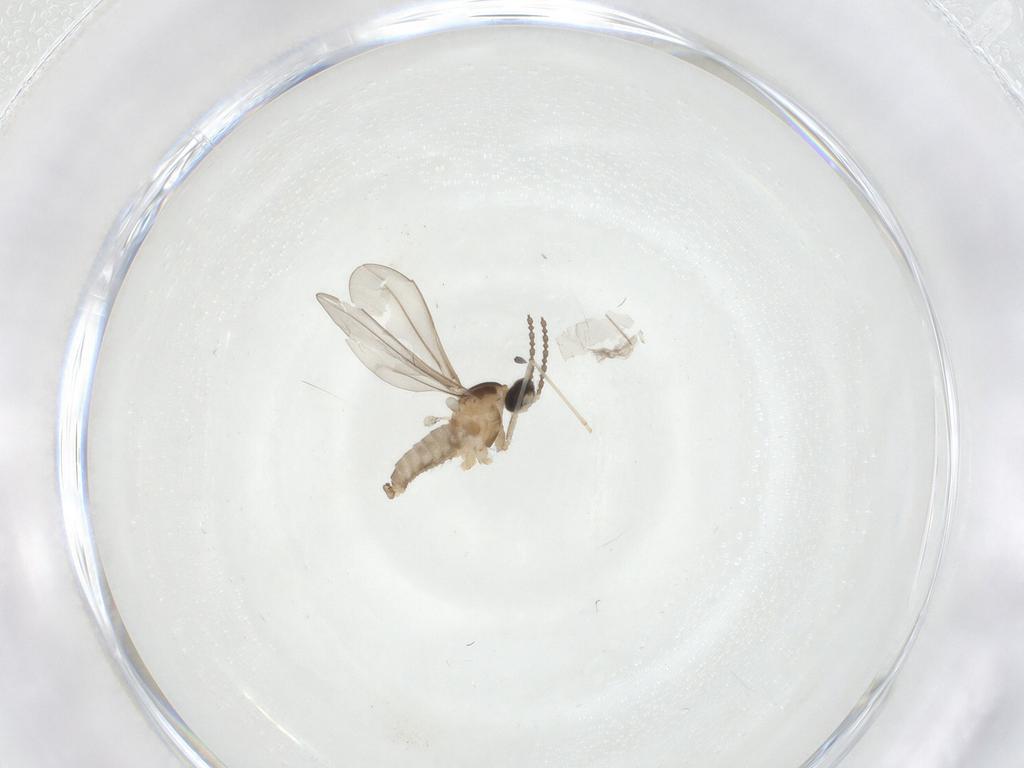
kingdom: Animalia
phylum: Arthropoda
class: Insecta
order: Diptera
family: Cecidomyiidae
